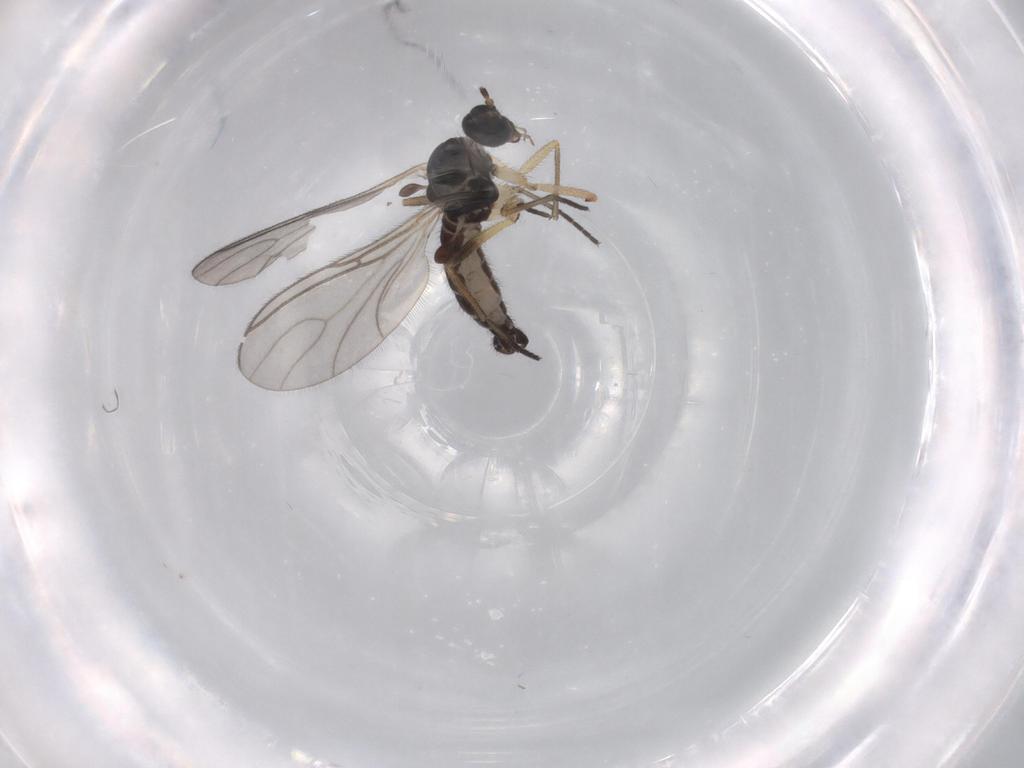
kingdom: Animalia
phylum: Arthropoda
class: Insecta
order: Diptera
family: Sciaridae
